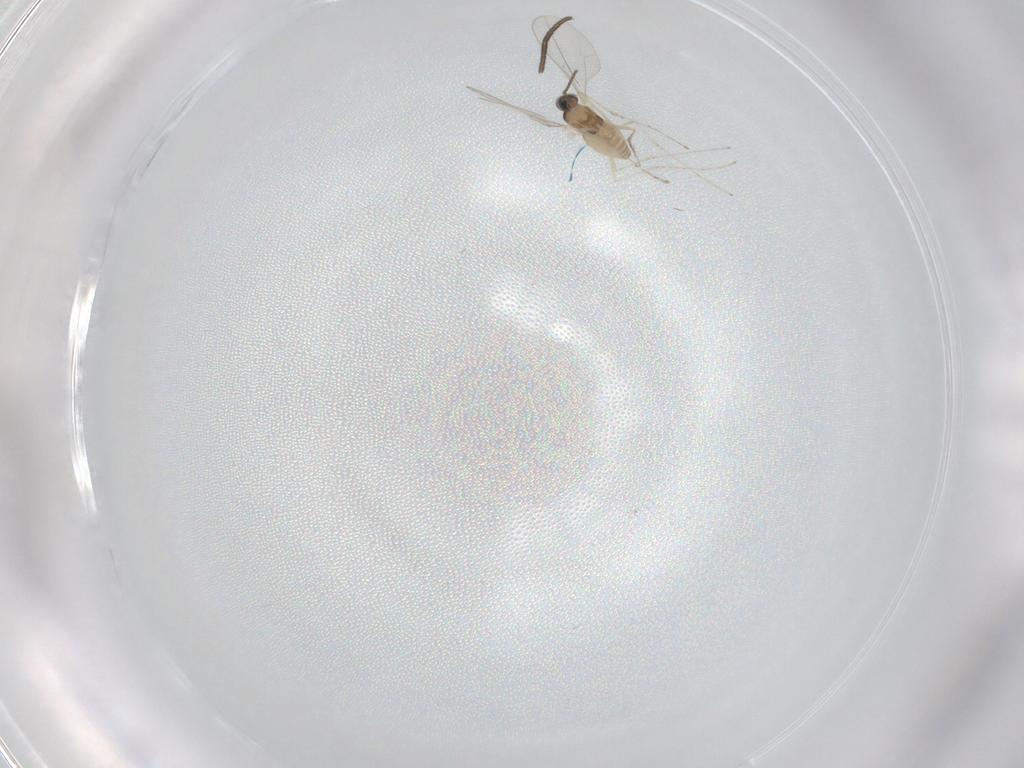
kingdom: Animalia
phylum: Arthropoda
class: Insecta
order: Diptera
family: Cecidomyiidae
